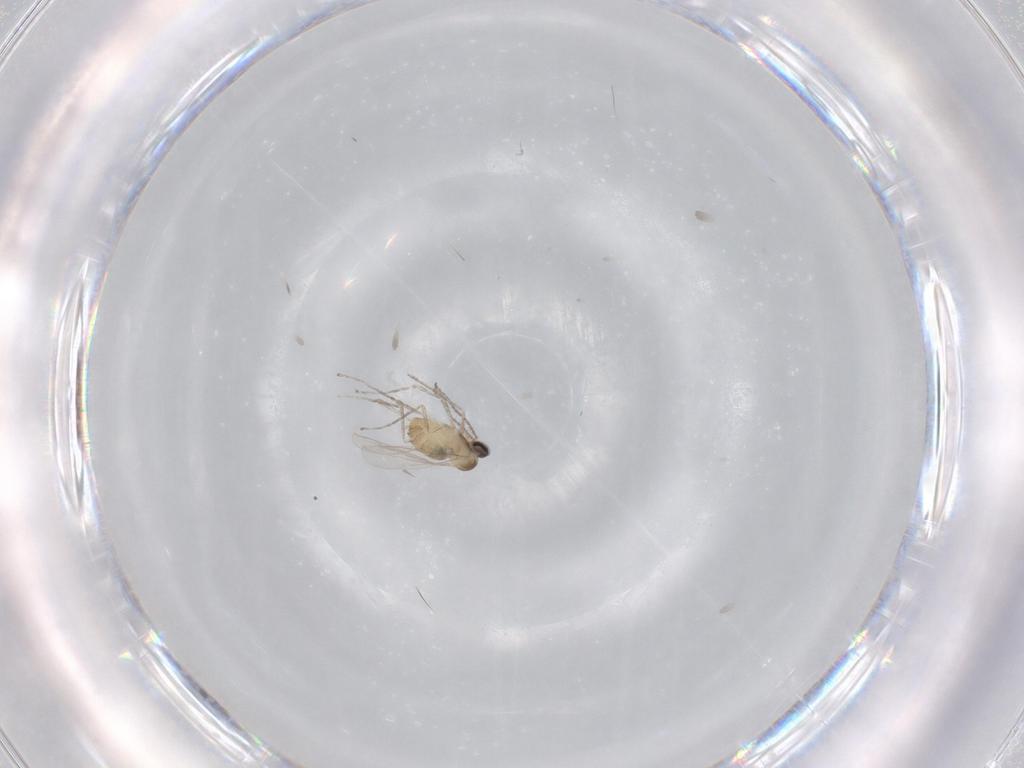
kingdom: Animalia
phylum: Arthropoda
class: Insecta
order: Diptera
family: Cecidomyiidae
